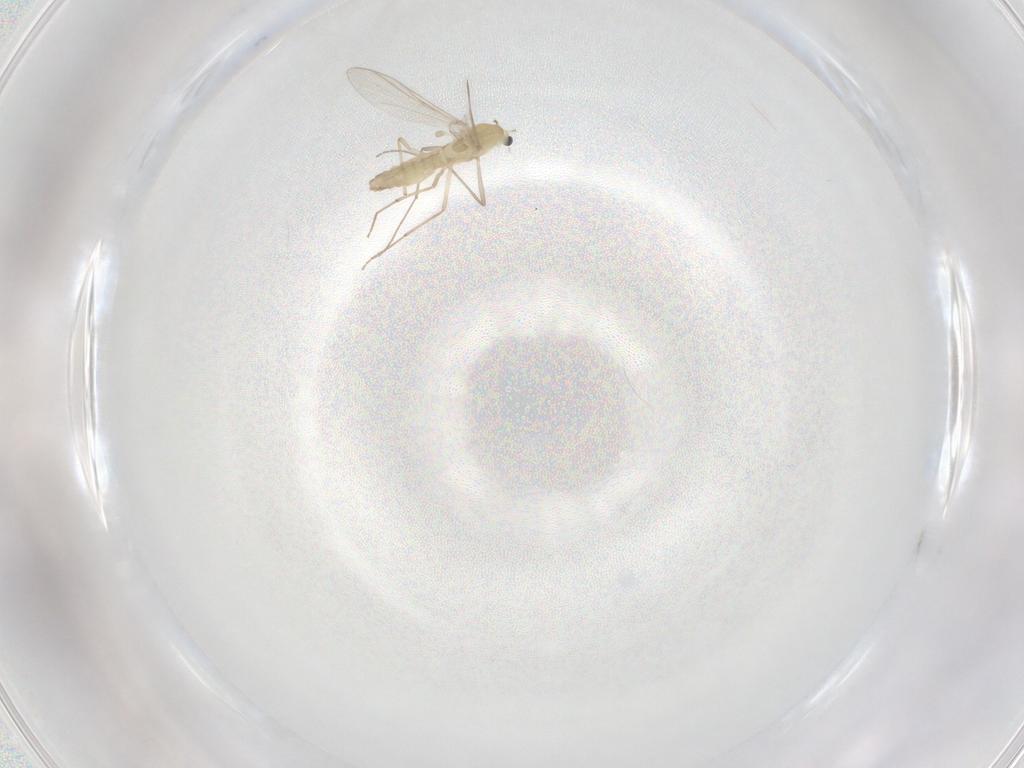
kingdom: Animalia
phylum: Arthropoda
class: Insecta
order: Diptera
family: Chironomidae
